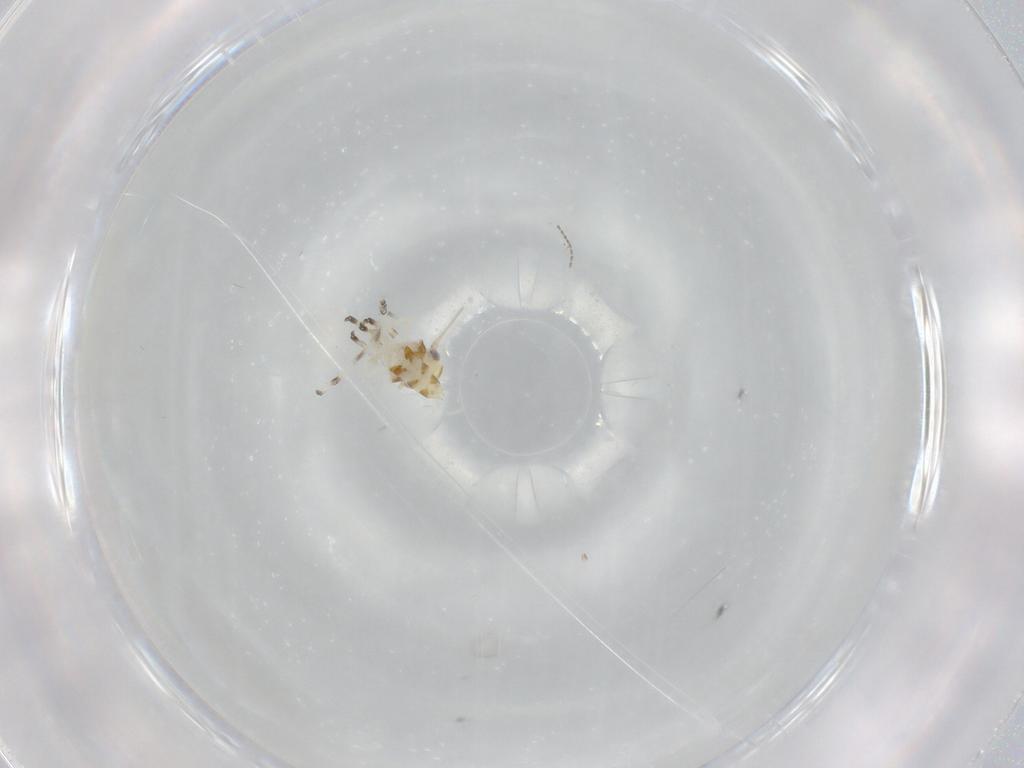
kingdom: Animalia
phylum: Arthropoda
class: Insecta
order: Hemiptera
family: Cicadellidae
